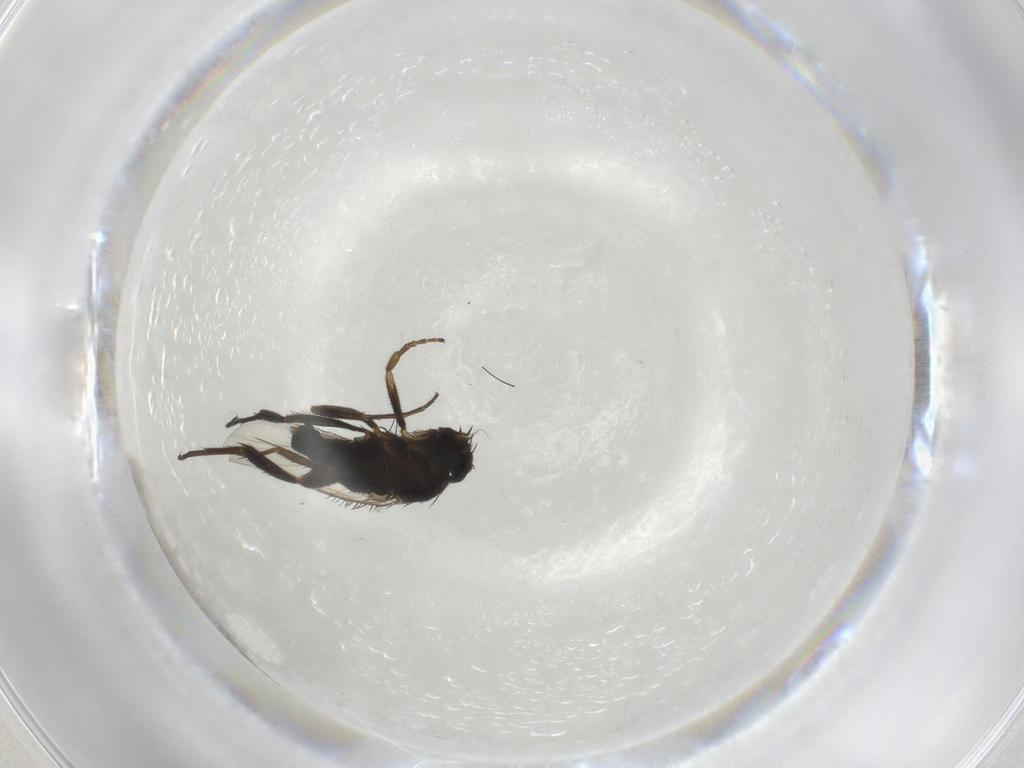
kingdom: Animalia
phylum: Arthropoda
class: Insecta
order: Diptera
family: Phoridae
